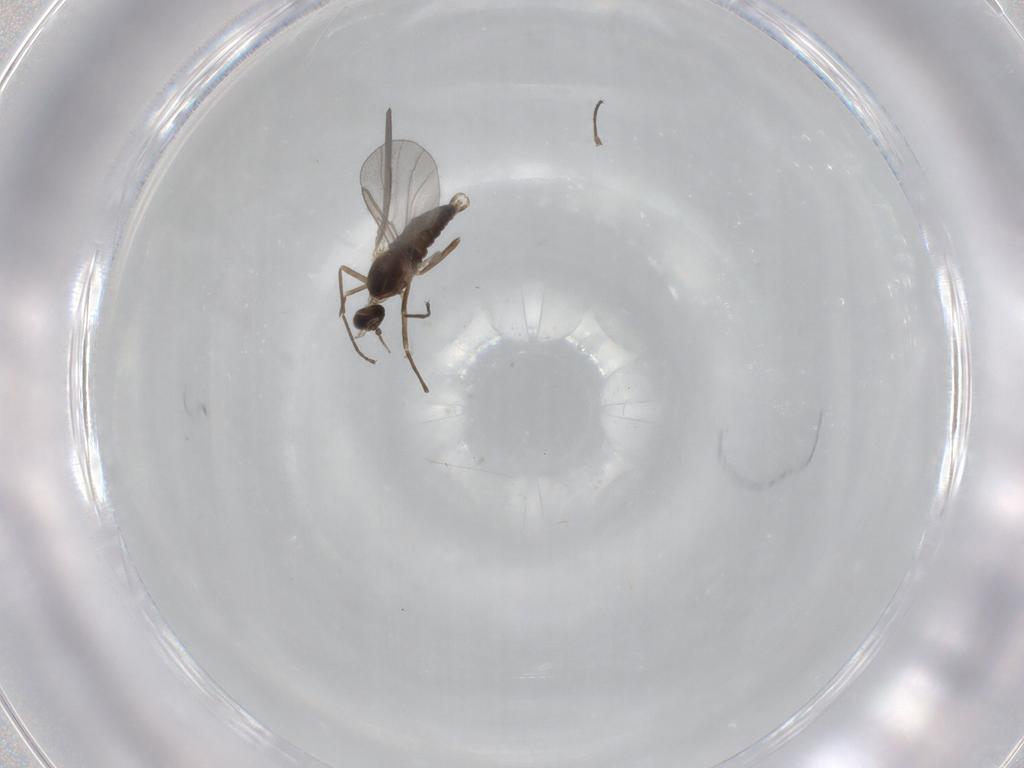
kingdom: Animalia
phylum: Arthropoda
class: Insecta
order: Diptera
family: Cecidomyiidae
